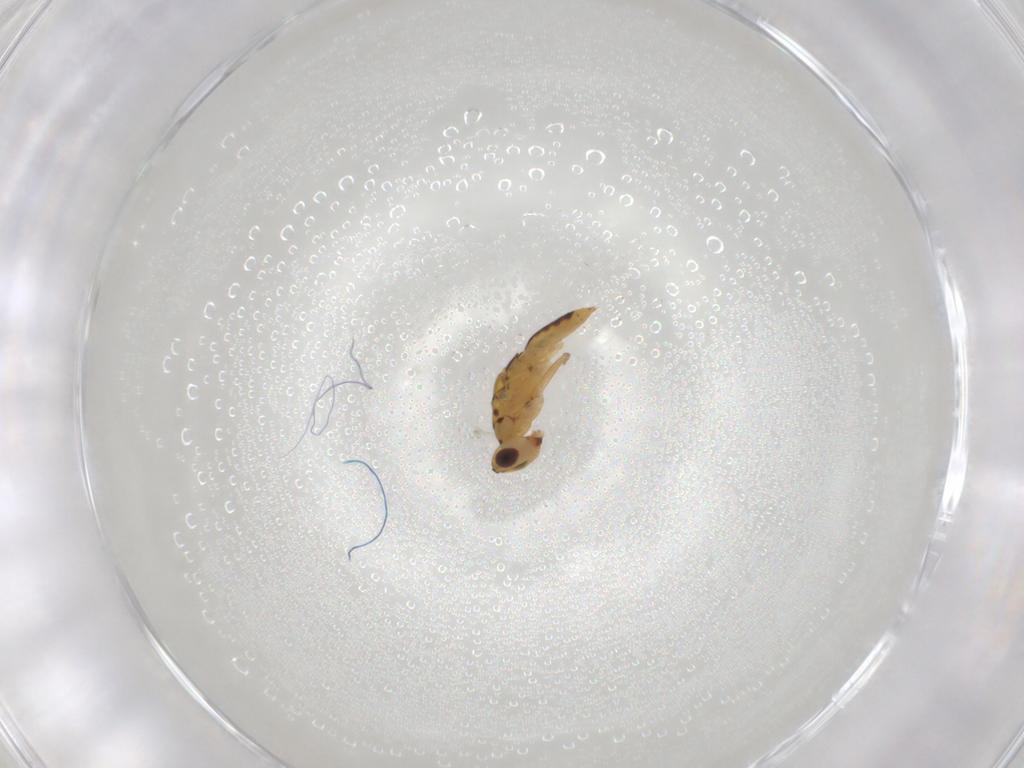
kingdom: Animalia
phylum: Arthropoda
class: Insecta
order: Hymenoptera
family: Eulophidae
